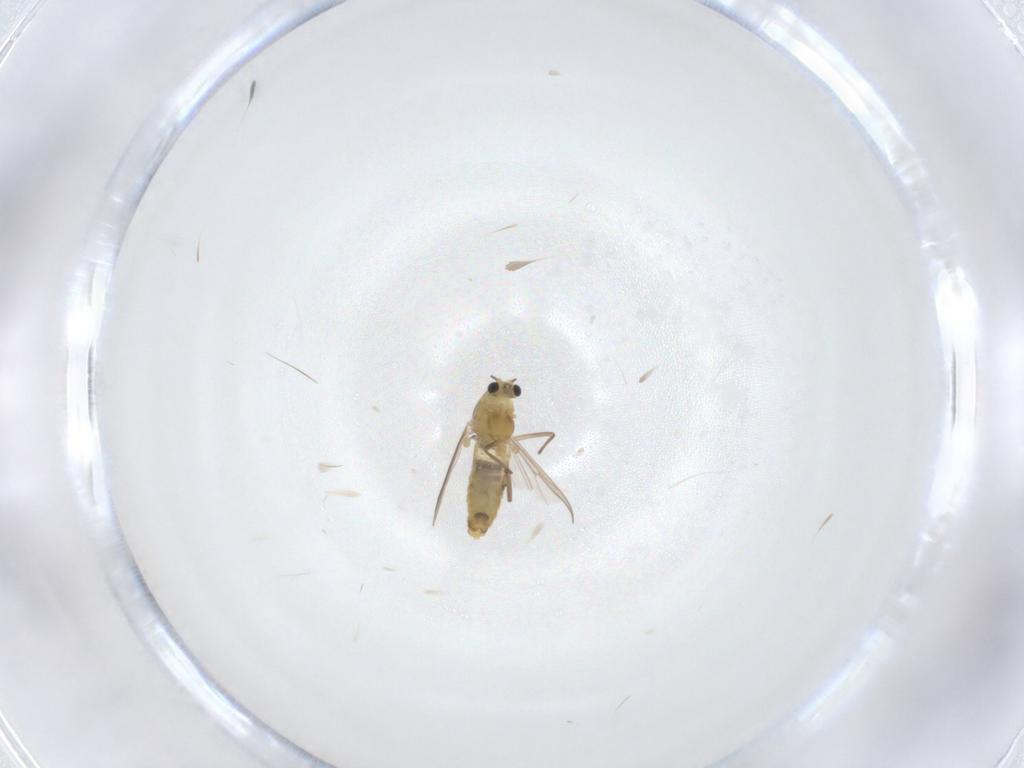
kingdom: Animalia
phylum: Arthropoda
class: Insecta
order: Diptera
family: Chironomidae
